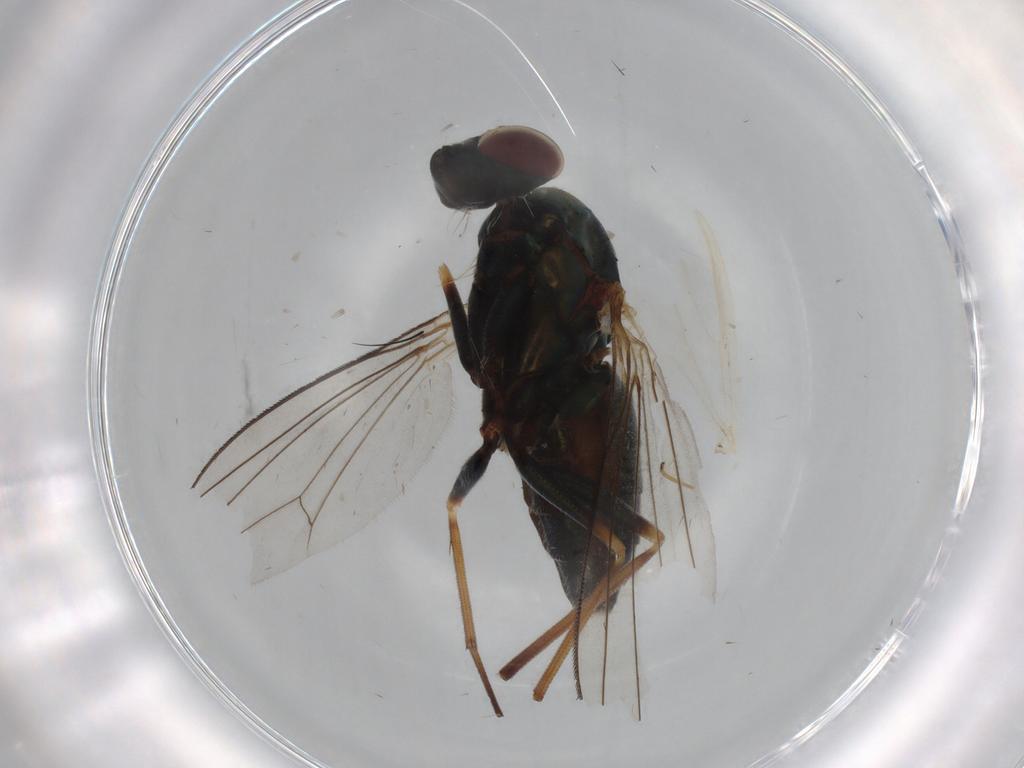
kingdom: Animalia
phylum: Arthropoda
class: Insecta
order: Diptera
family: Dolichopodidae
